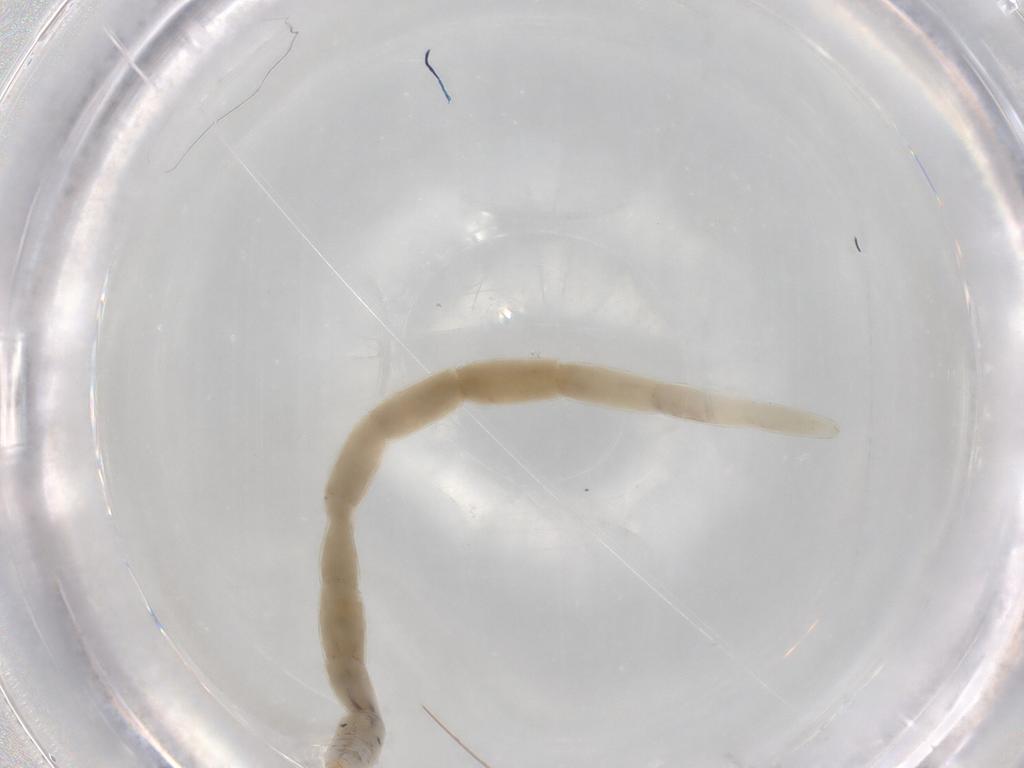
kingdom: Animalia
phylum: Arthropoda
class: Insecta
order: Diptera
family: Ceratopogonidae
